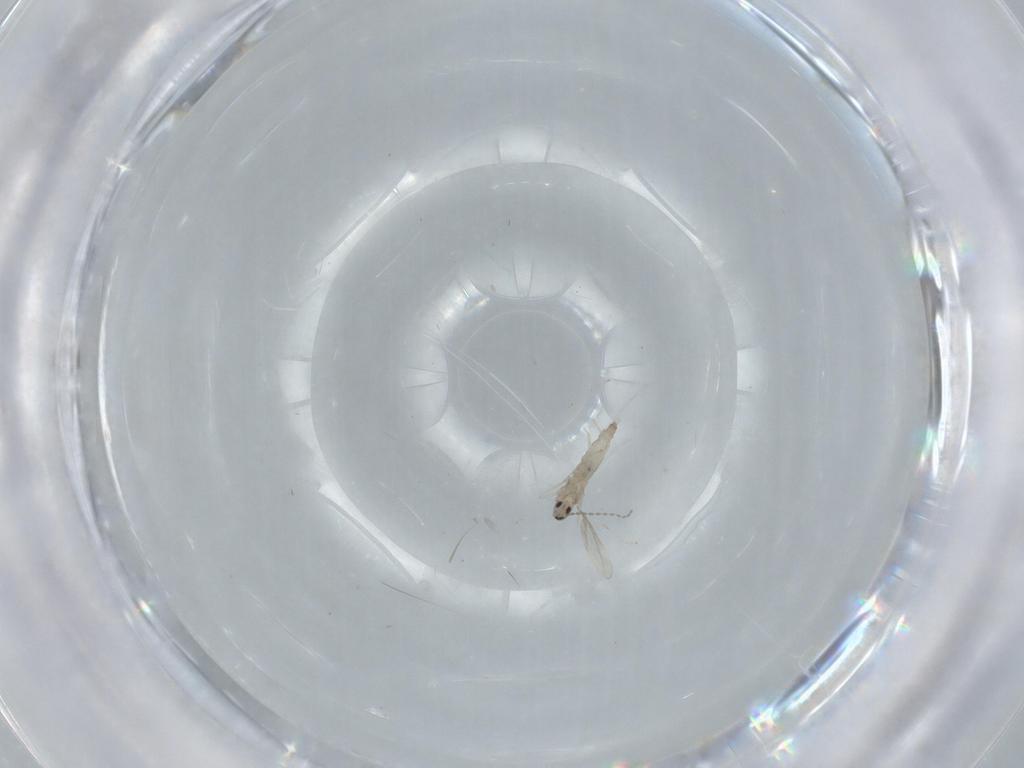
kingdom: Animalia
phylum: Arthropoda
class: Insecta
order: Diptera
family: Cecidomyiidae
